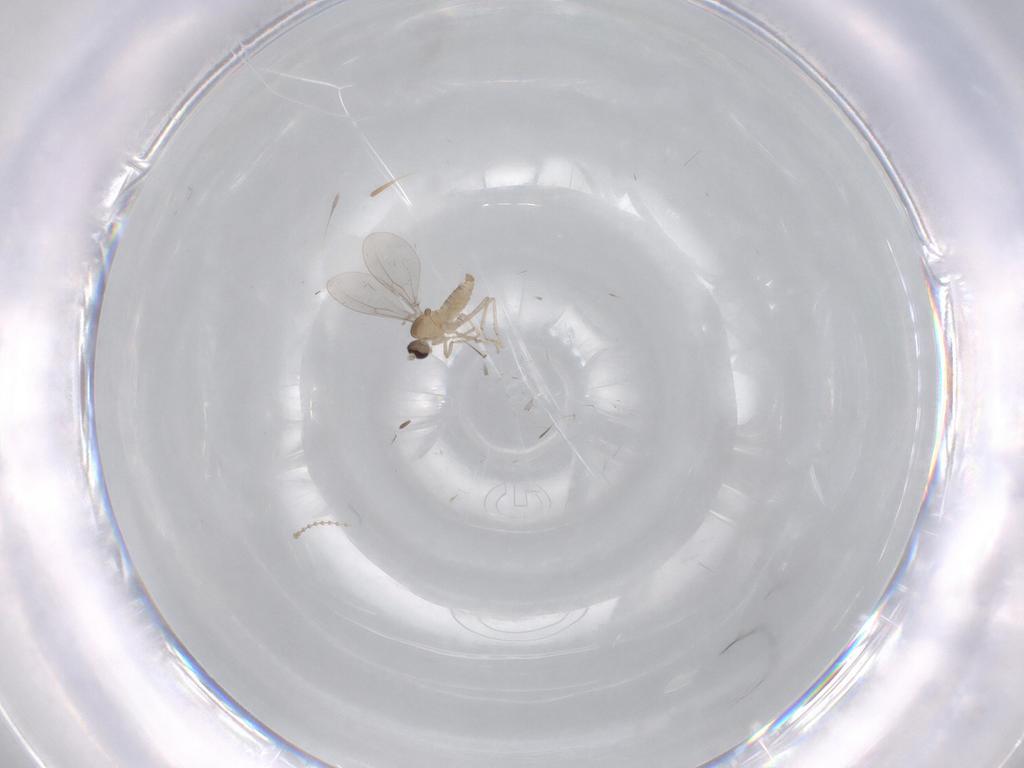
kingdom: Animalia
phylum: Arthropoda
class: Insecta
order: Diptera
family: Cecidomyiidae
